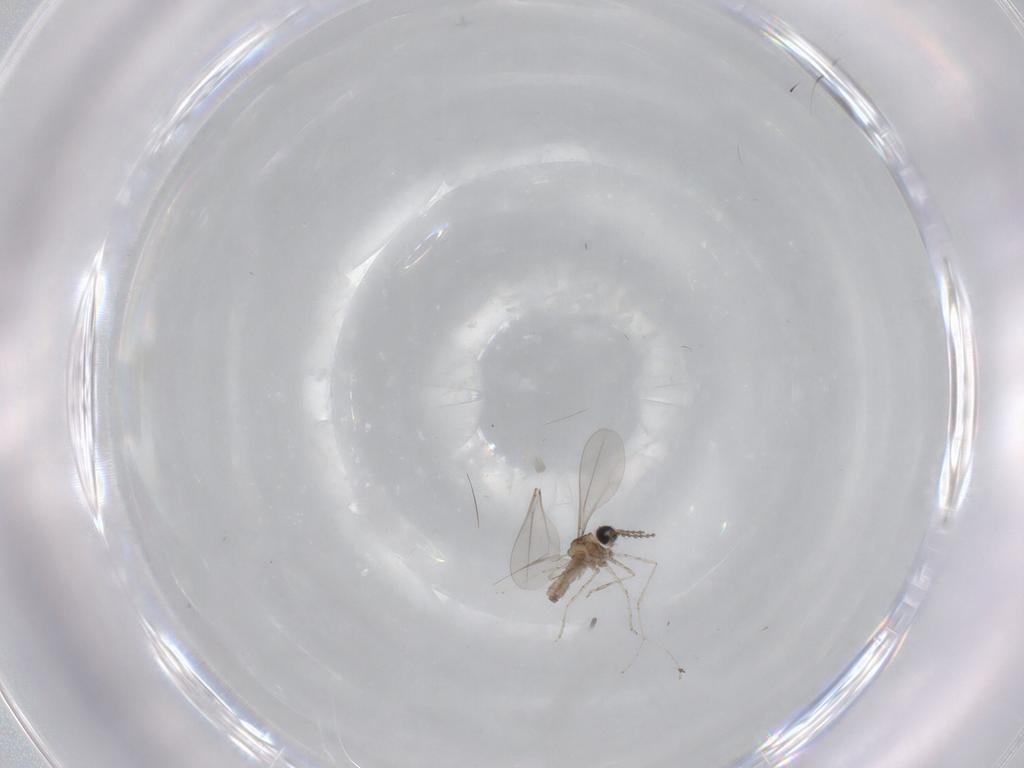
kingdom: Animalia
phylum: Arthropoda
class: Insecta
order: Diptera
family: Cecidomyiidae
